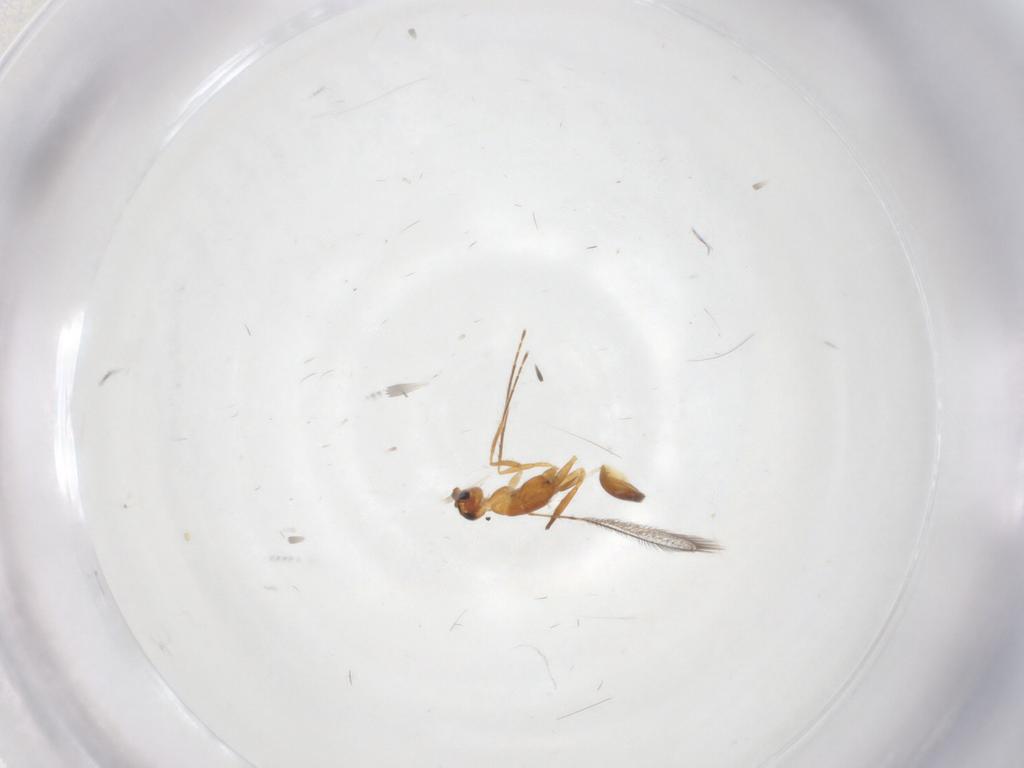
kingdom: Animalia
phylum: Arthropoda
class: Insecta
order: Hymenoptera
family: Mymaridae
